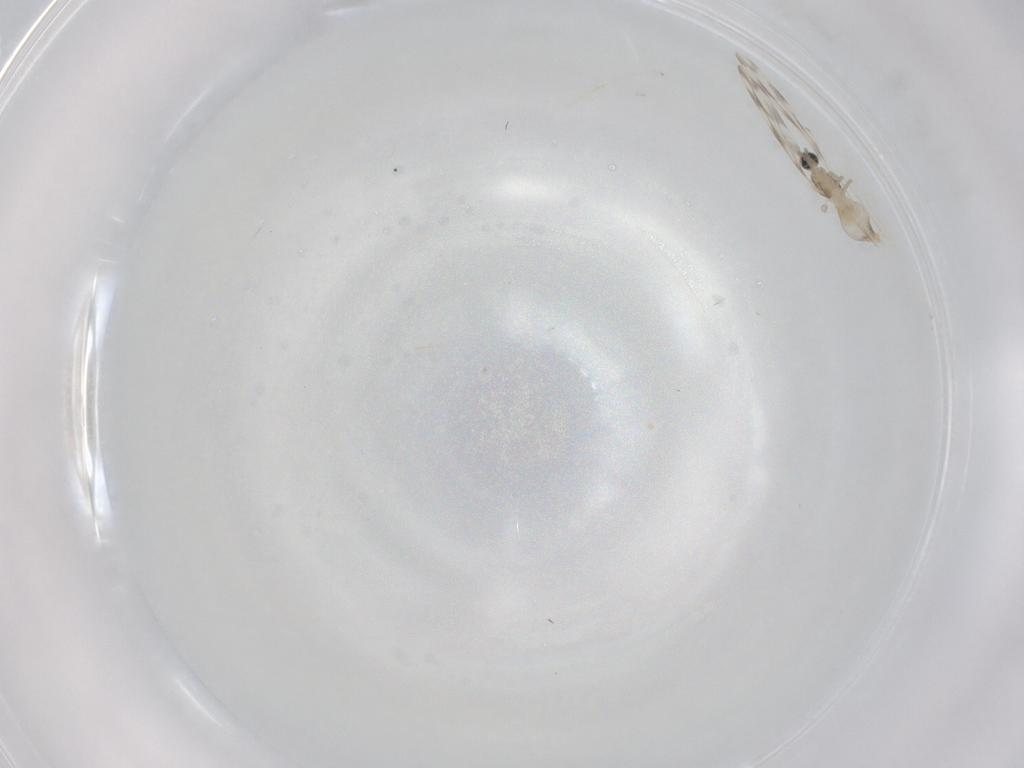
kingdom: Animalia
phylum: Arthropoda
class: Insecta
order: Diptera
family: Cecidomyiidae
